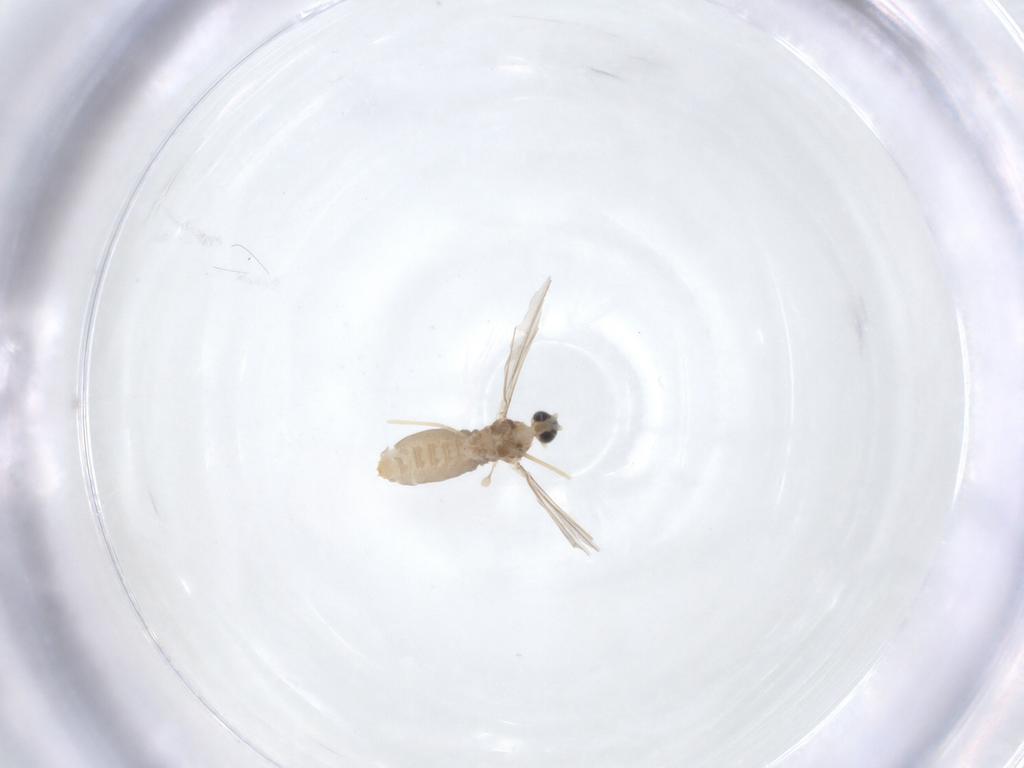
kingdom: Animalia
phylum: Arthropoda
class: Insecta
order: Diptera
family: Cecidomyiidae
